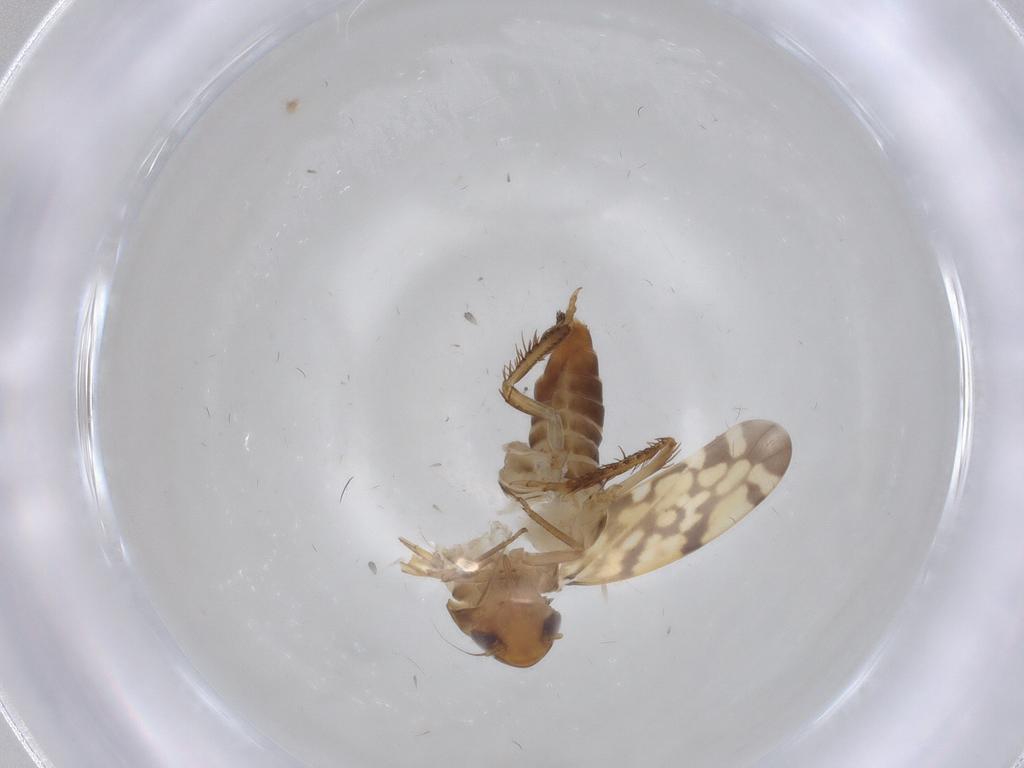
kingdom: Animalia
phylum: Arthropoda
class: Insecta
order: Hemiptera
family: Cicadellidae
